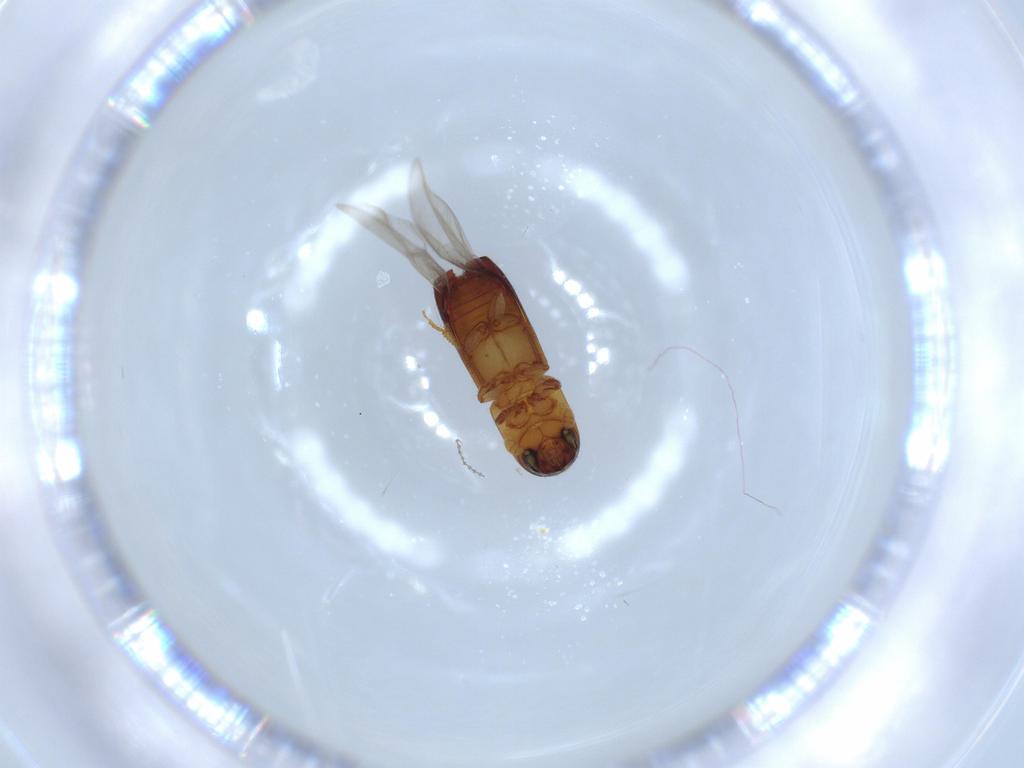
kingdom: Animalia
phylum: Arthropoda
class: Insecta
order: Coleoptera
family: Curculionidae
